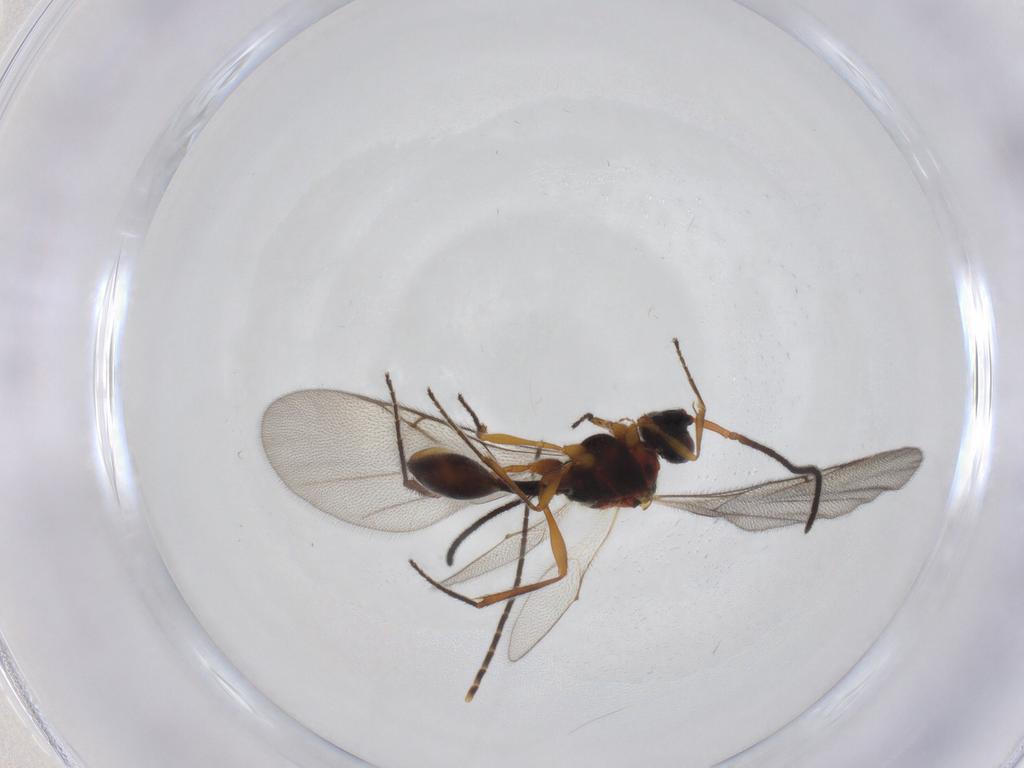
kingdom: Animalia
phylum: Arthropoda
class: Insecta
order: Hymenoptera
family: Diapriidae
